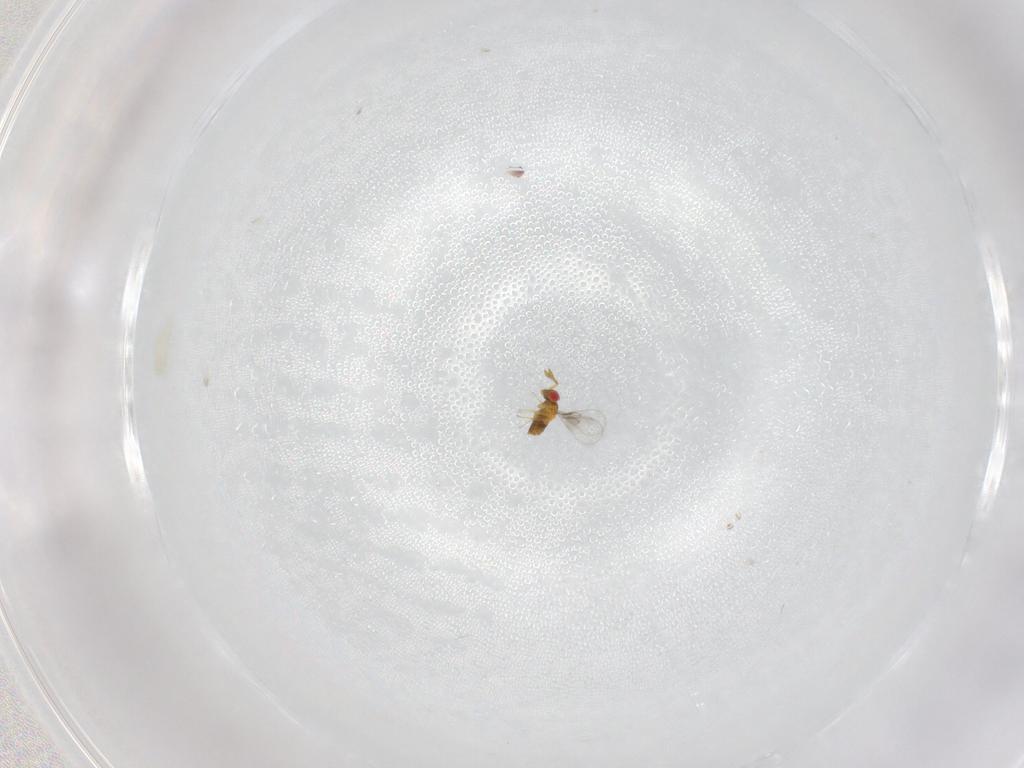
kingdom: Animalia
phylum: Arthropoda
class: Insecta
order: Hymenoptera
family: Trichogrammatidae
